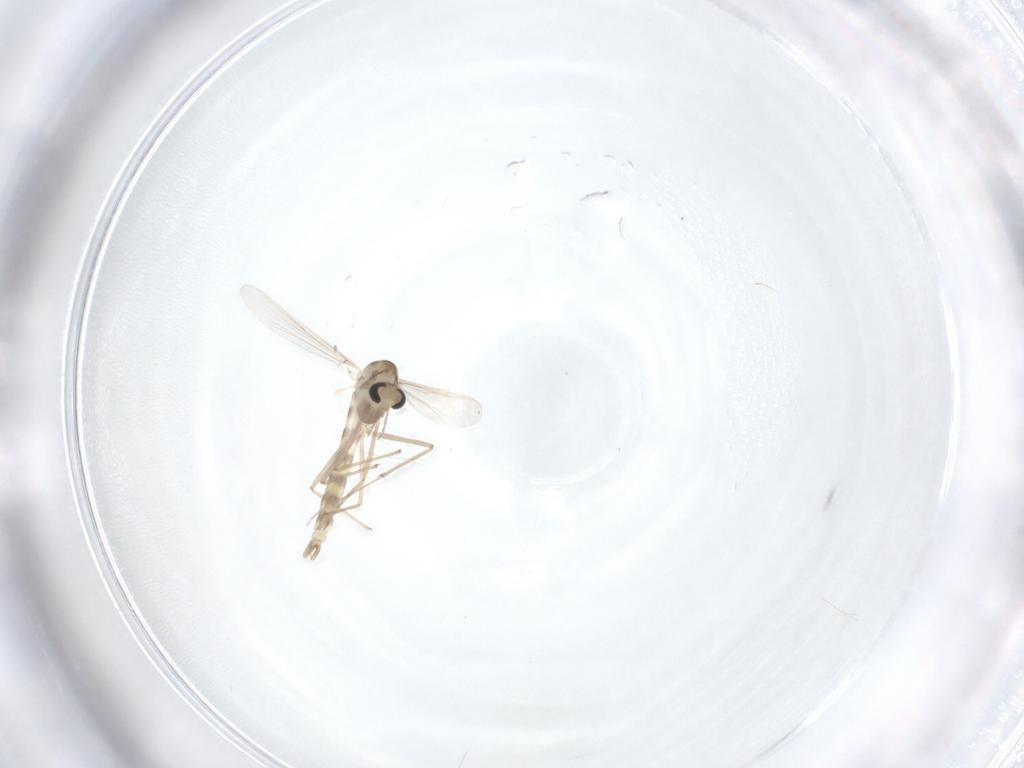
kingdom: Animalia
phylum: Arthropoda
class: Insecta
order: Diptera
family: Chironomidae
